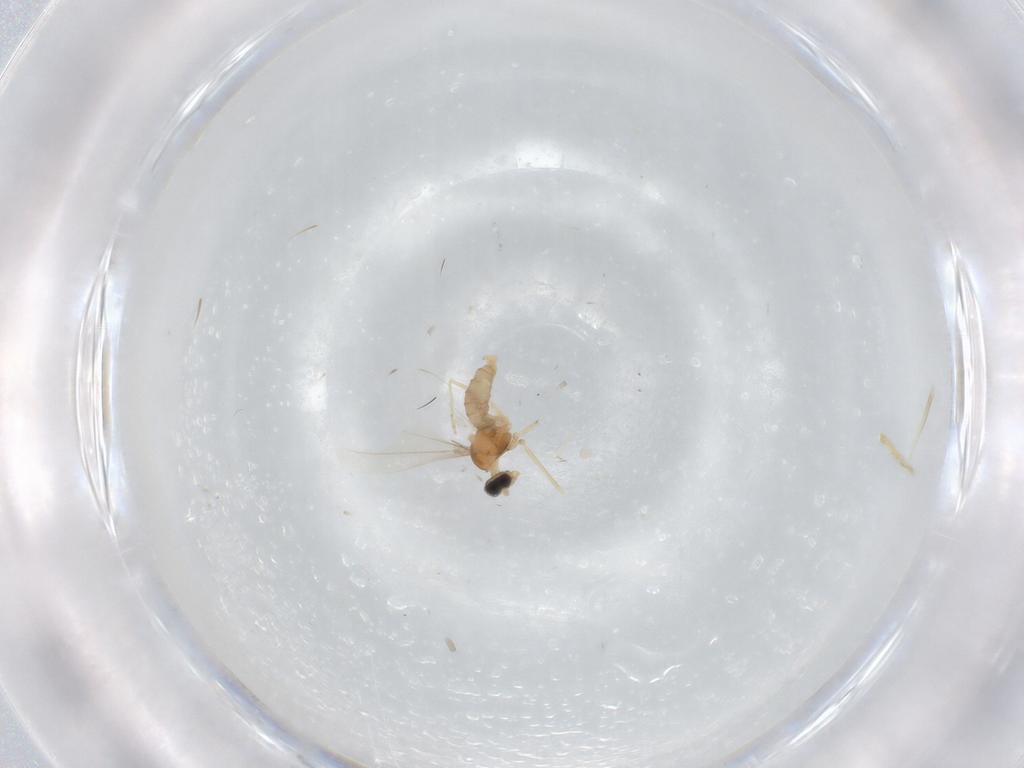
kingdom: Animalia
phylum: Arthropoda
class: Insecta
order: Diptera
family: Cecidomyiidae
